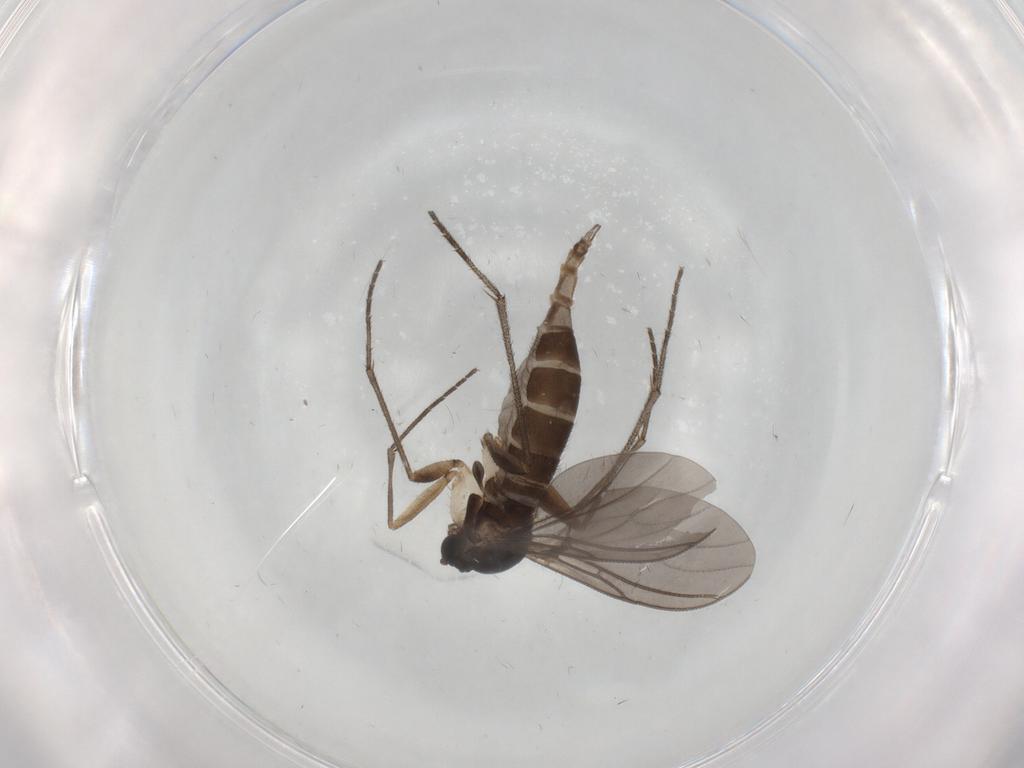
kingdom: Animalia
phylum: Arthropoda
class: Insecta
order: Diptera
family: Sciaridae
